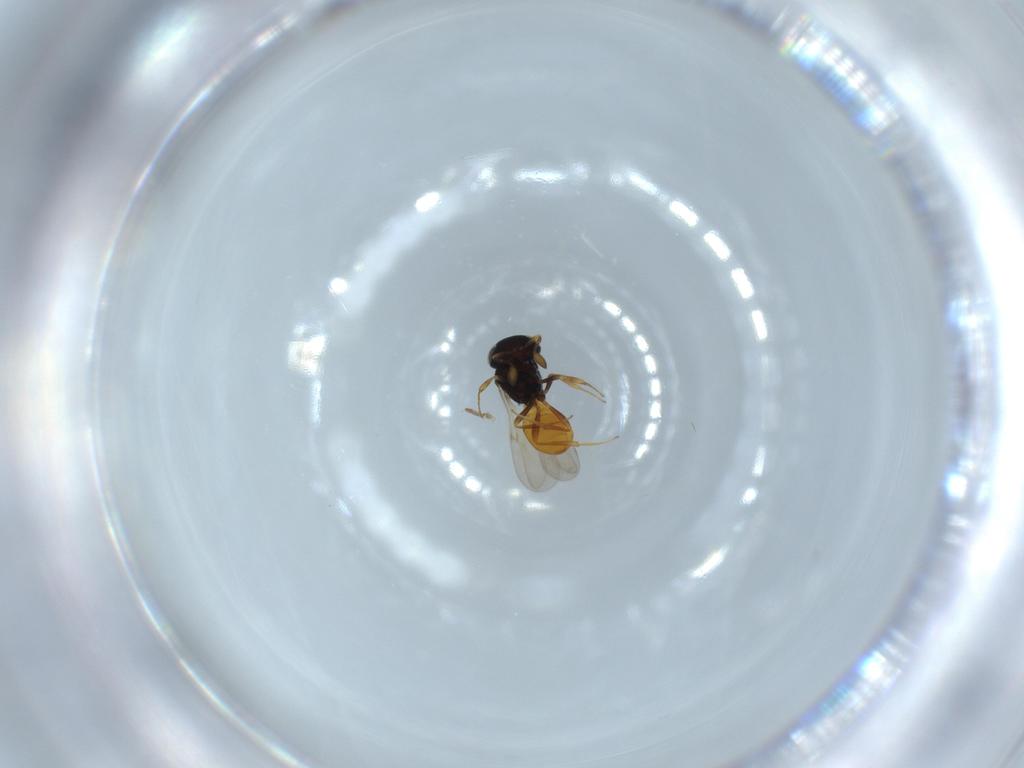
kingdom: Animalia
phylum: Arthropoda
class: Insecta
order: Hymenoptera
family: Scelionidae
